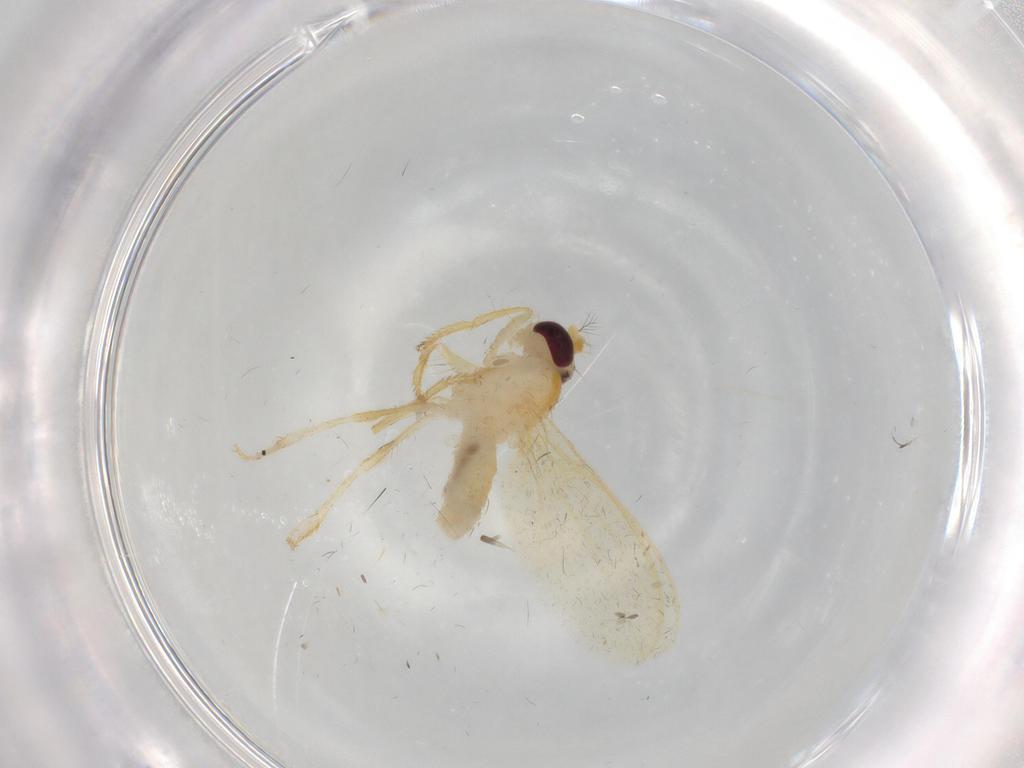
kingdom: Animalia
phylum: Arthropoda
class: Insecta
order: Diptera
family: Periscelididae
